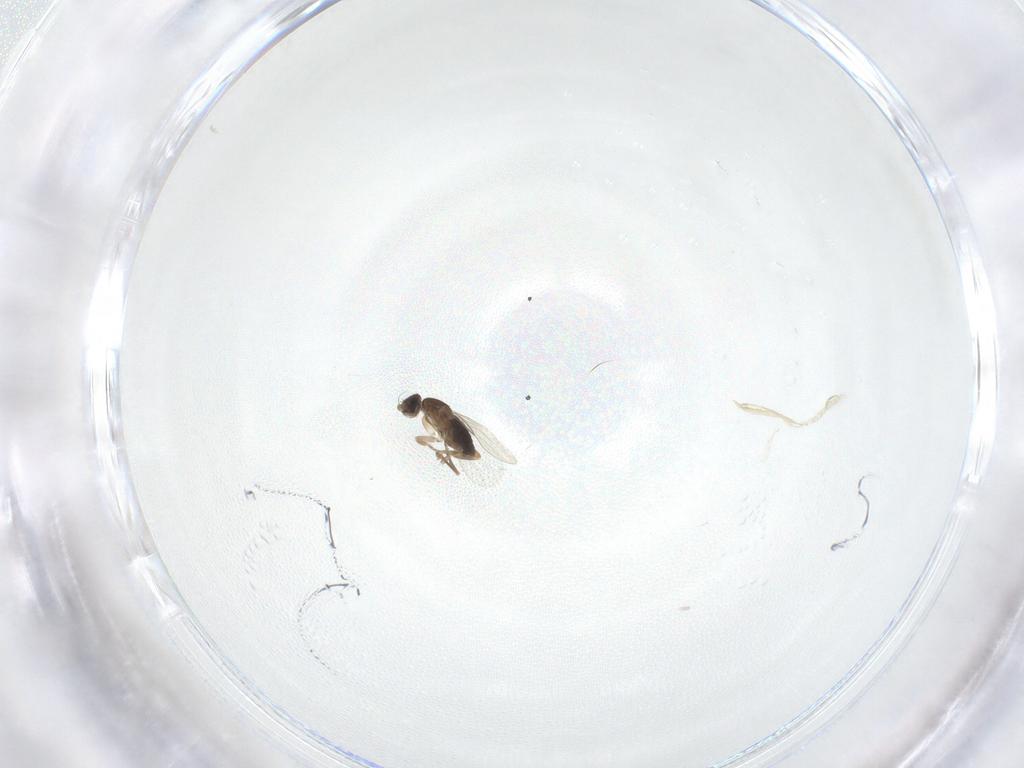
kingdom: Animalia
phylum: Arthropoda
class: Insecta
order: Diptera
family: Phoridae
